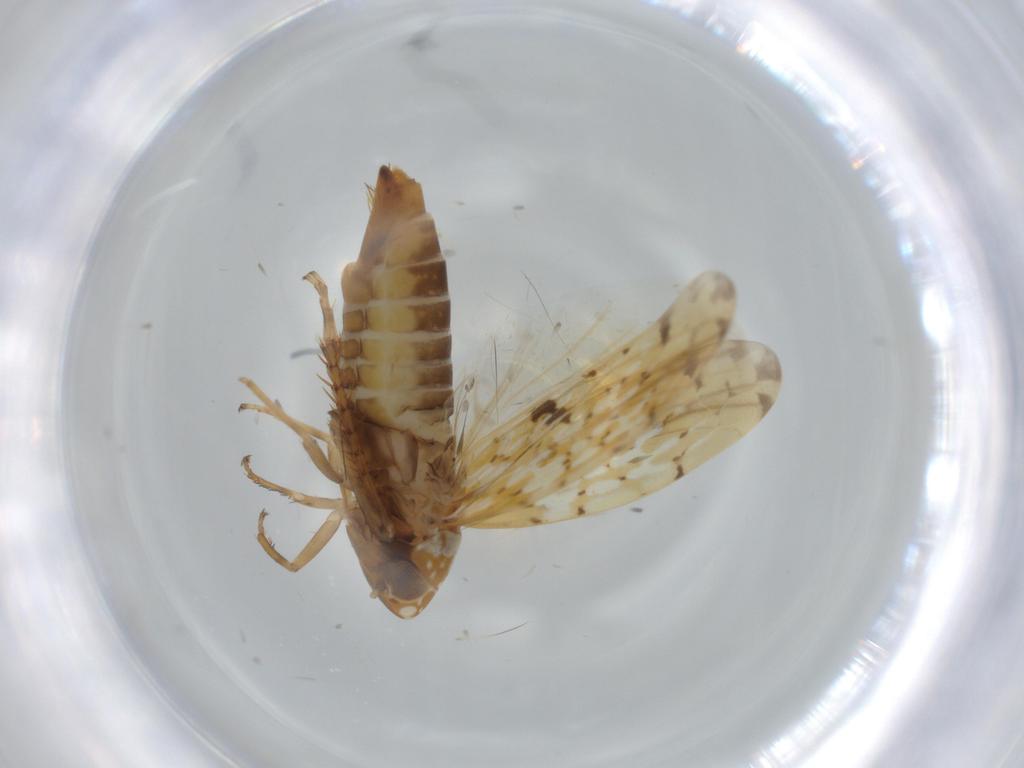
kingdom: Animalia
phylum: Arthropoda
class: Insecta
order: Hemiptera
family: Cicadellidae
